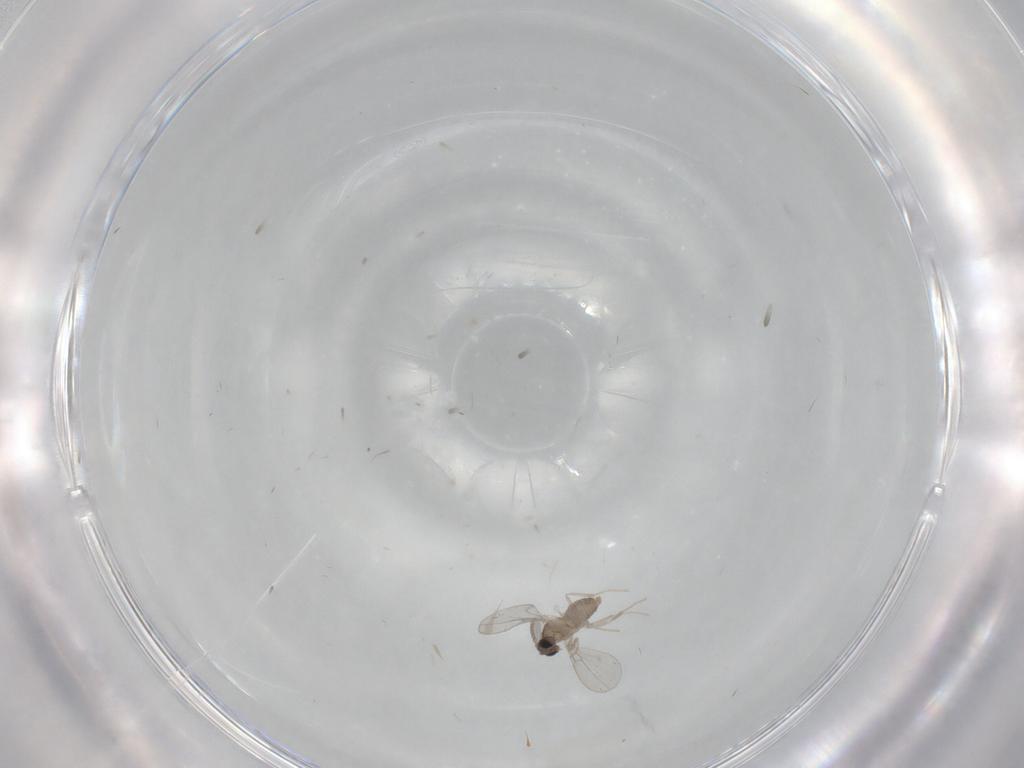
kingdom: Animalia
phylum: Arthropoda
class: Insecta
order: Diptera
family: Cecidomyiidae
